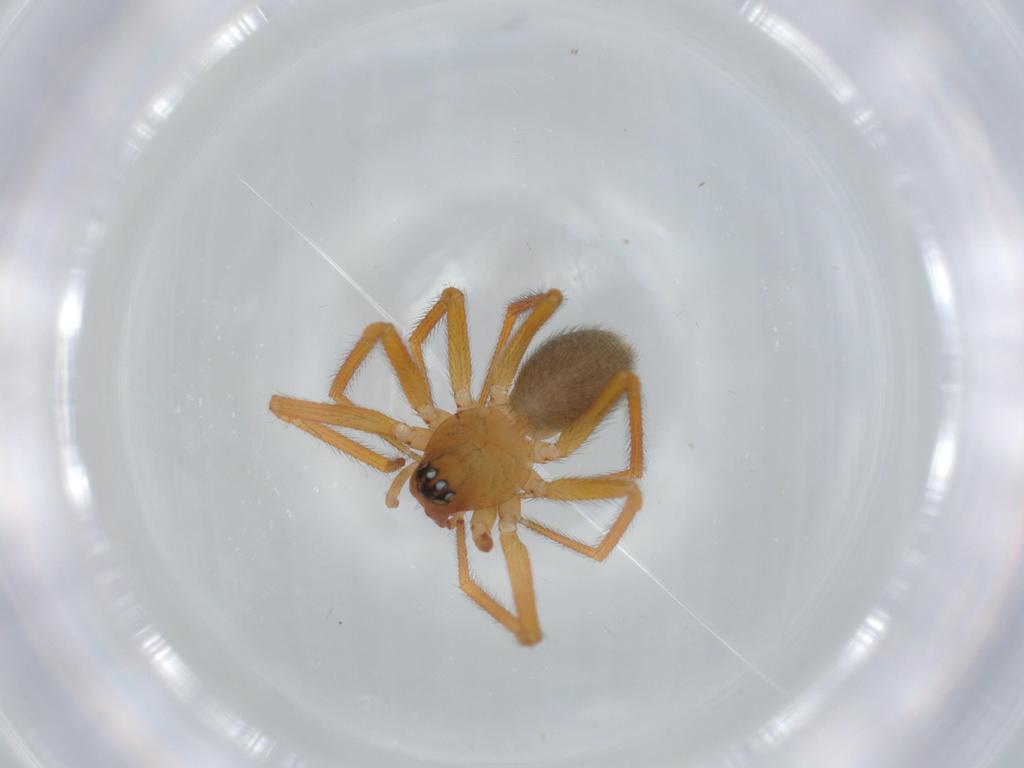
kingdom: Animalia
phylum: Arthropoda
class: Arachnida
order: Araneae
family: Linyphiidae
